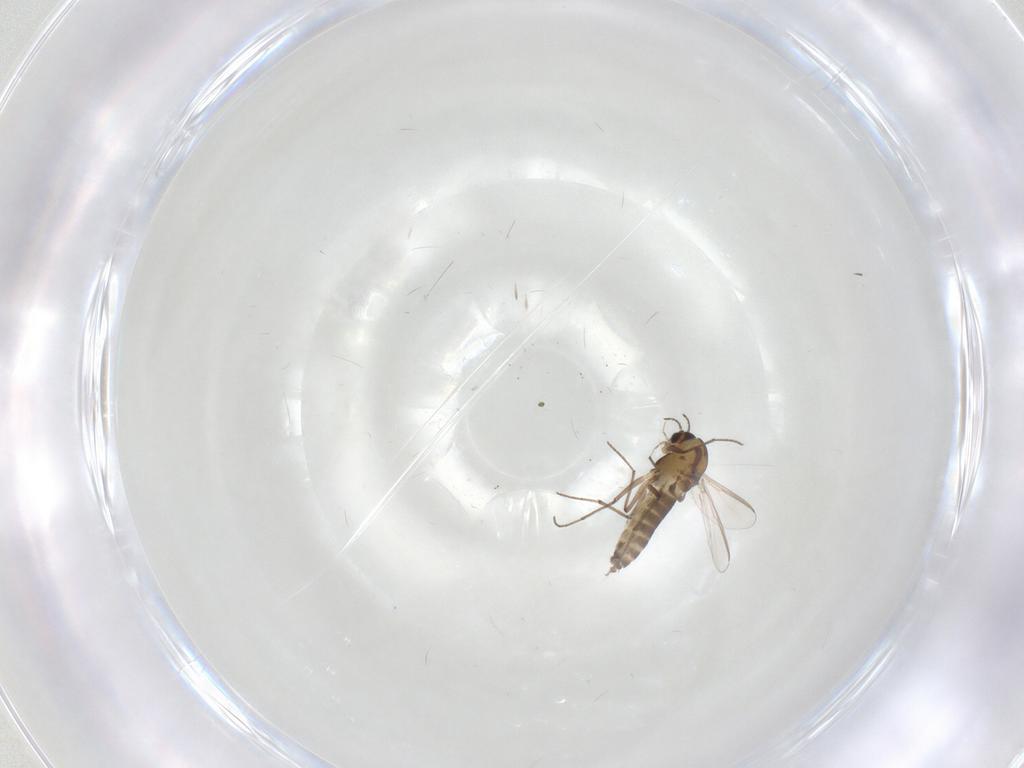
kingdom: Animalia
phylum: Arthropoda
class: Insecta
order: Diptera
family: Chironomidae
